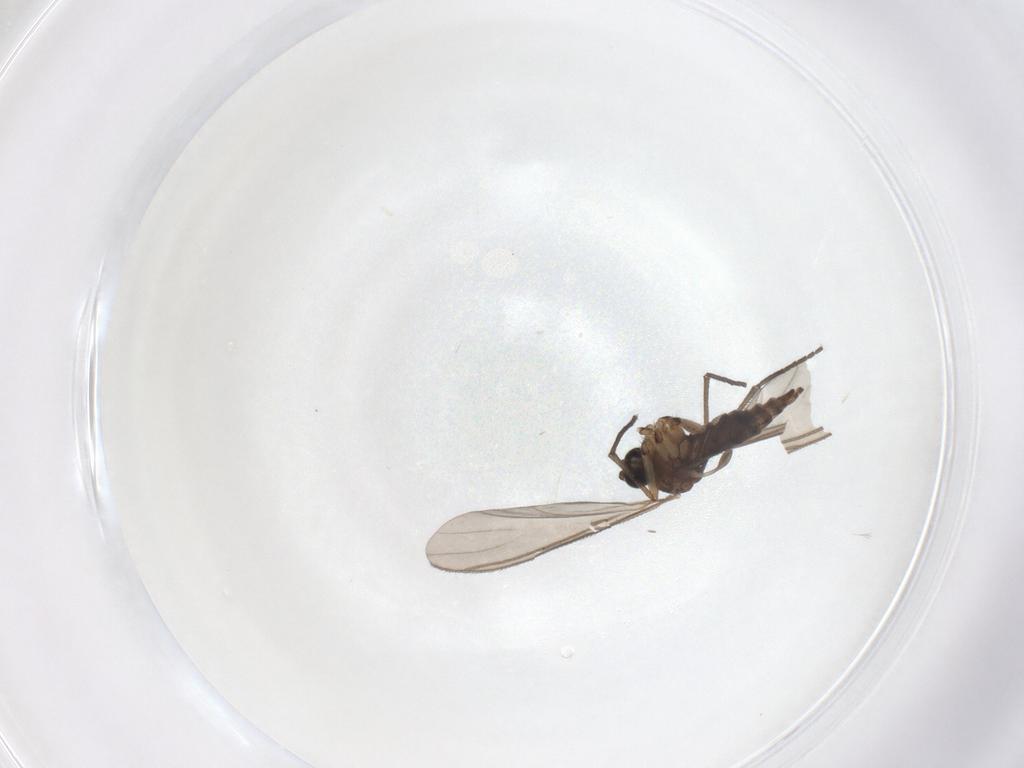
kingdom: Animalia
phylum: Arthropoda
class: Insecta
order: Diptera
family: Sciaridae
